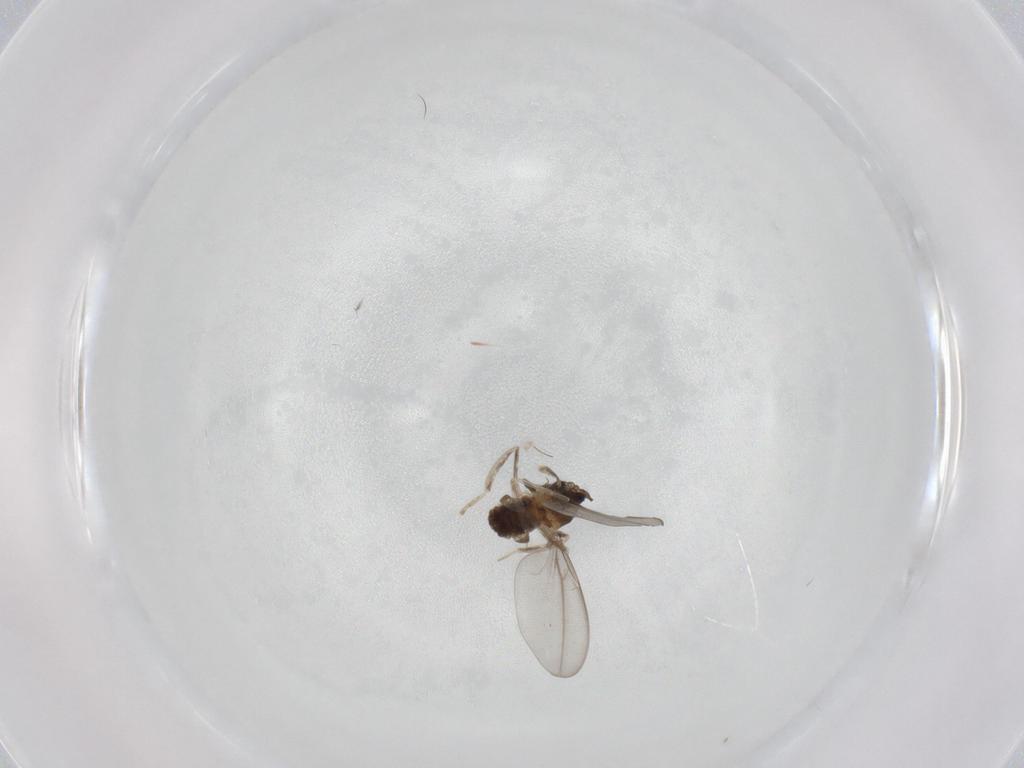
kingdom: Animalia
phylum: Arthropoda
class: Insecta
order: Diptera
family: Cecidomyiidae
